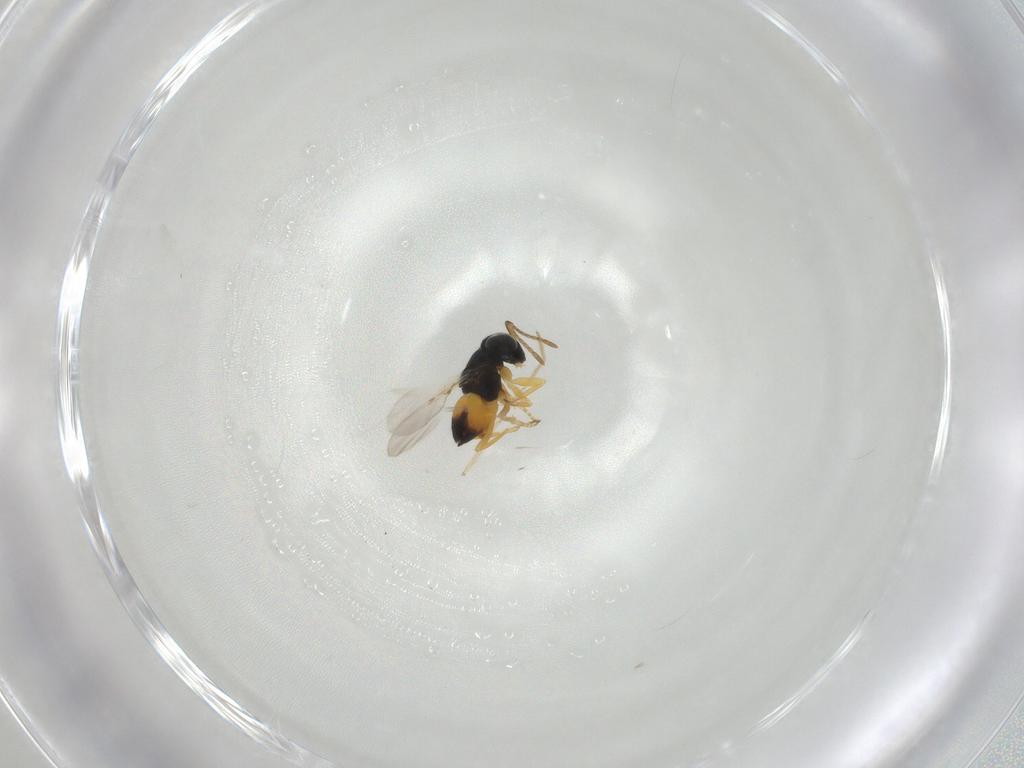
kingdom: Animalia
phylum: Arthropoda
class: Insecta
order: Hymenoptera
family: Encyrtidae
